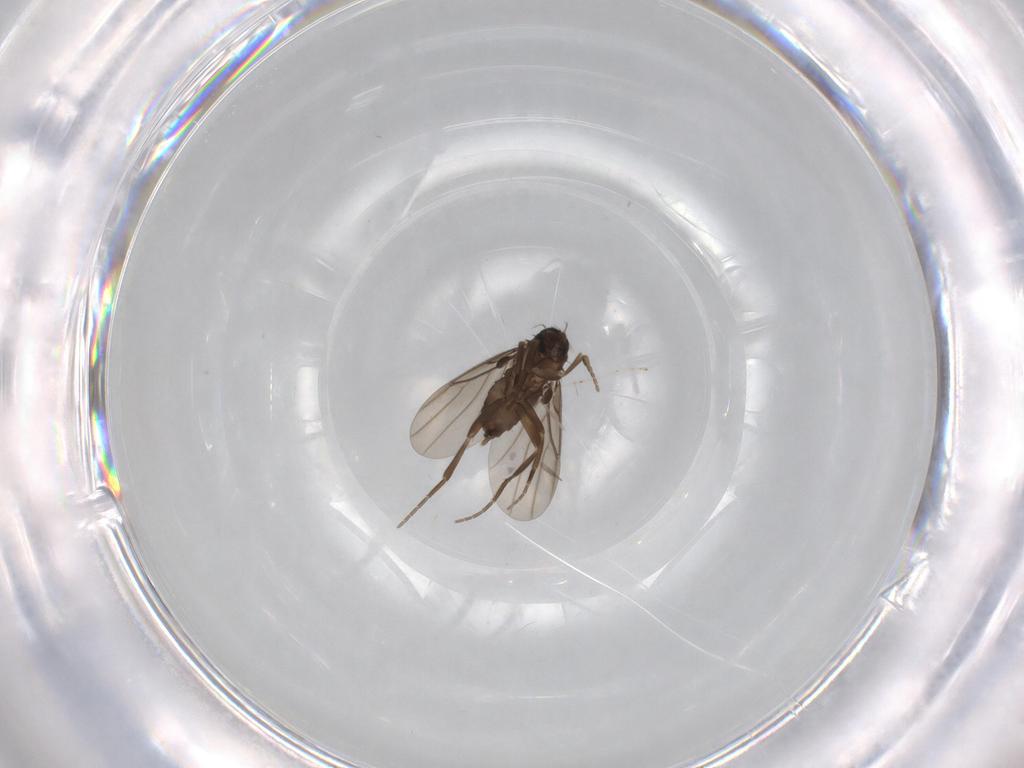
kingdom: Animalia
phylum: Arthropoda
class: Insecta
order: Diptera
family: Cecidomyiidae
